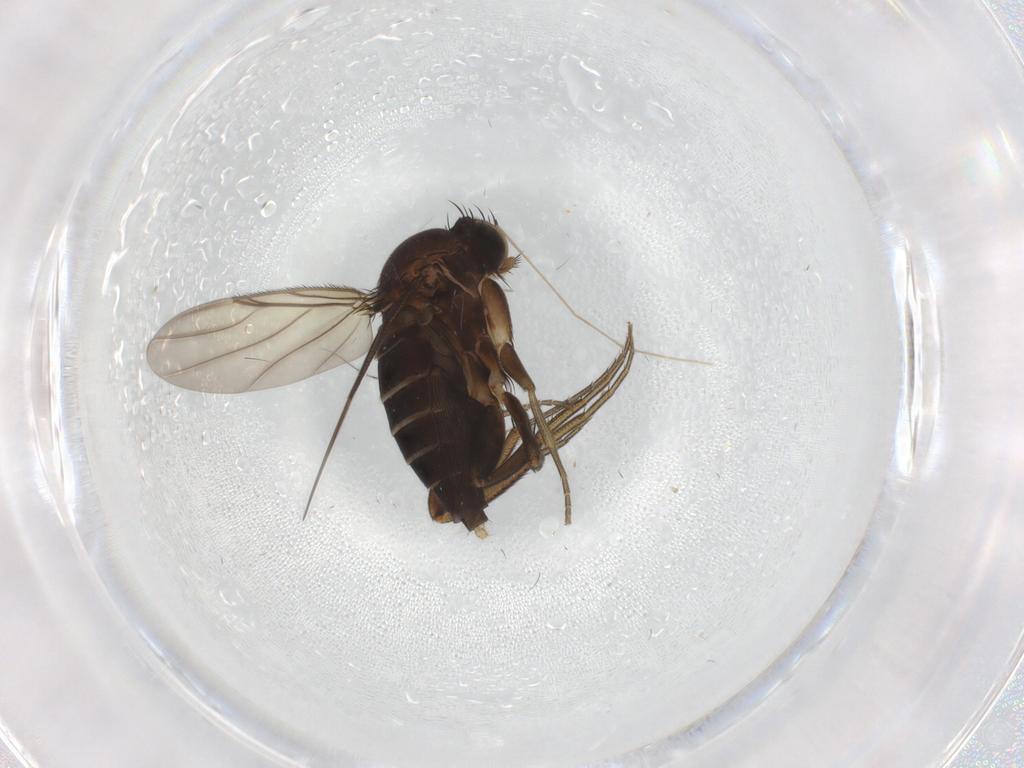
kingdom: Animalia
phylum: Arthropoda
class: Insecta
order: Diptera
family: Phoridae
